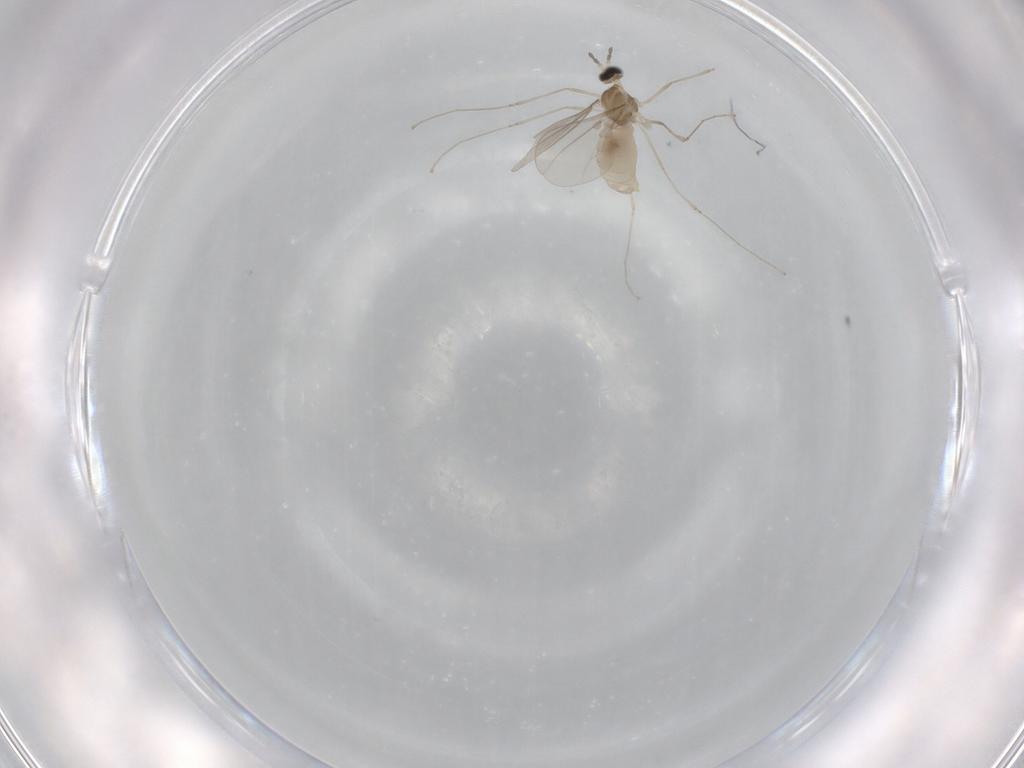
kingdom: Animalia
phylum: Arthropoda
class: Insecta
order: Diptera
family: Cecidomyiidae
